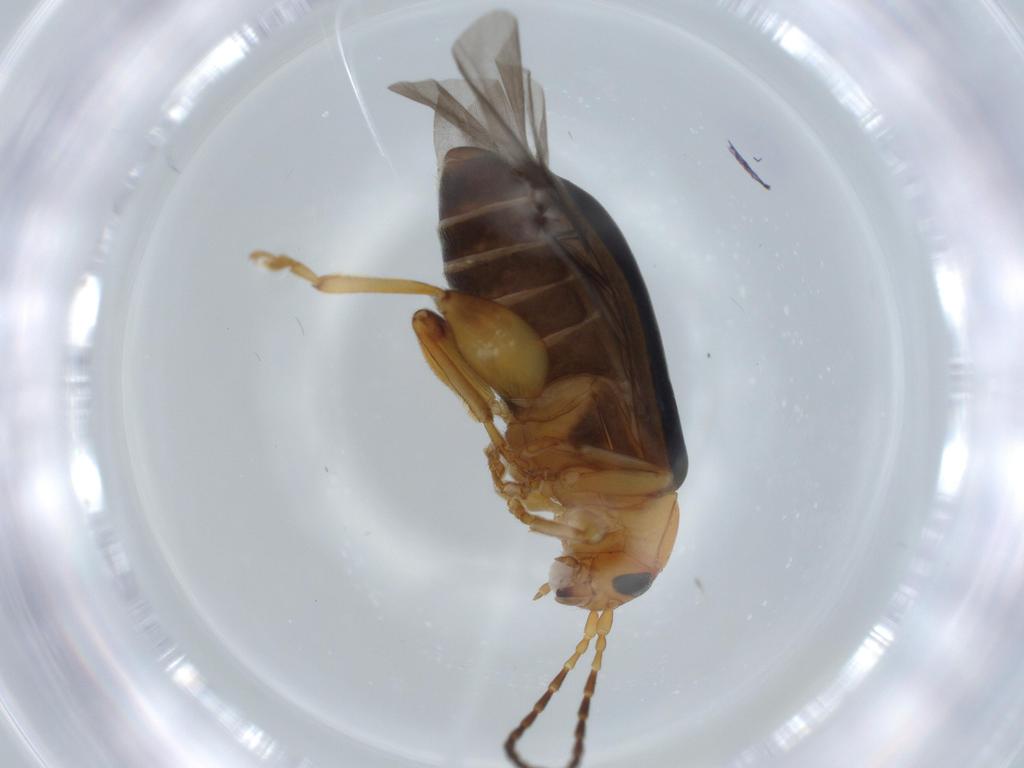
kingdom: Animalia
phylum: Arthropoda
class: Insecta
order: Coleoptera
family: Chrysomelidae
